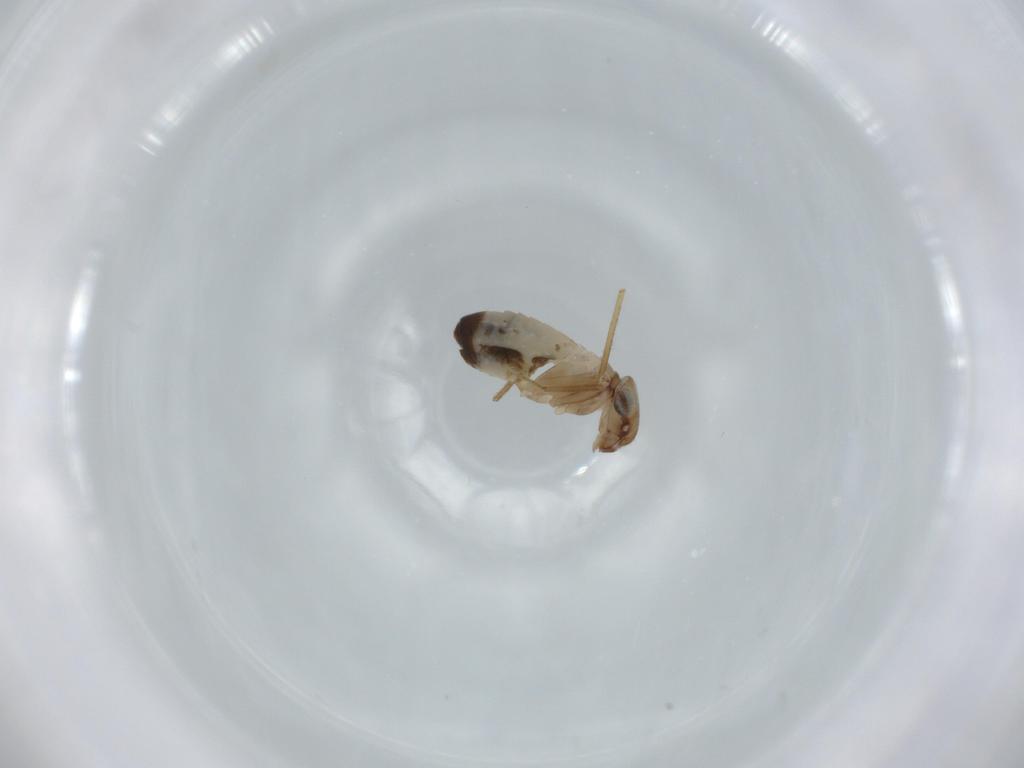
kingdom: Animalia
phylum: Arthropoda
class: Insecta
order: Psocodea
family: Lepidopsocidae
